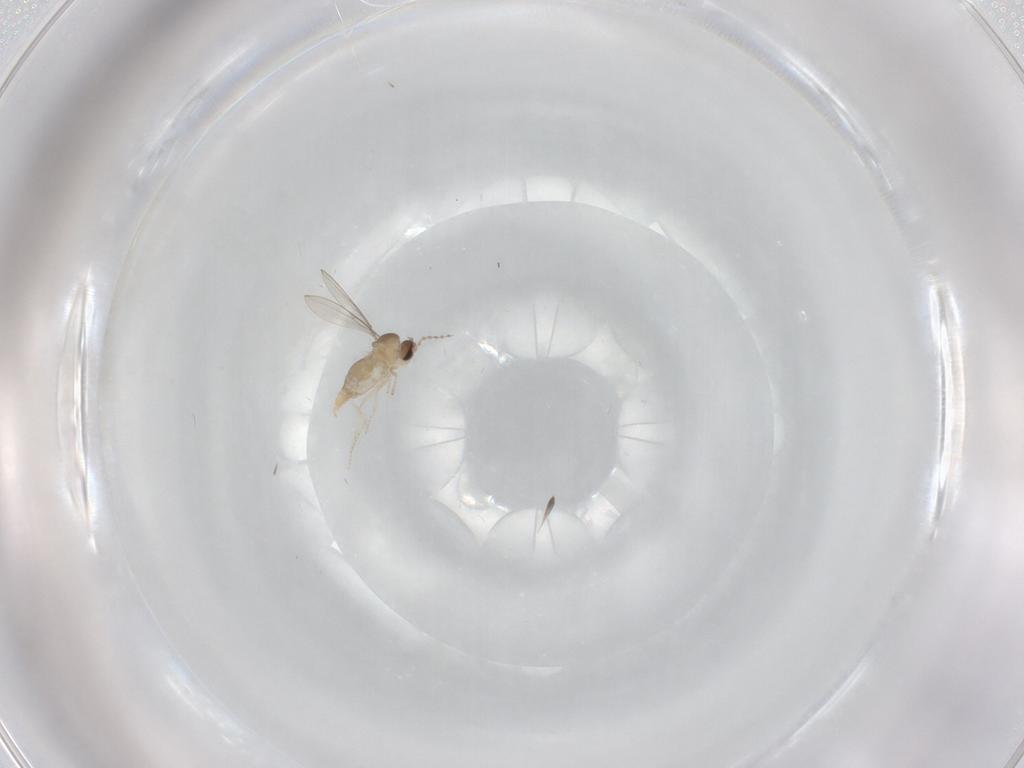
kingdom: Animalia
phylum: Arthropoda
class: Insecta
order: Diptera
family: Cecidomyiidae
